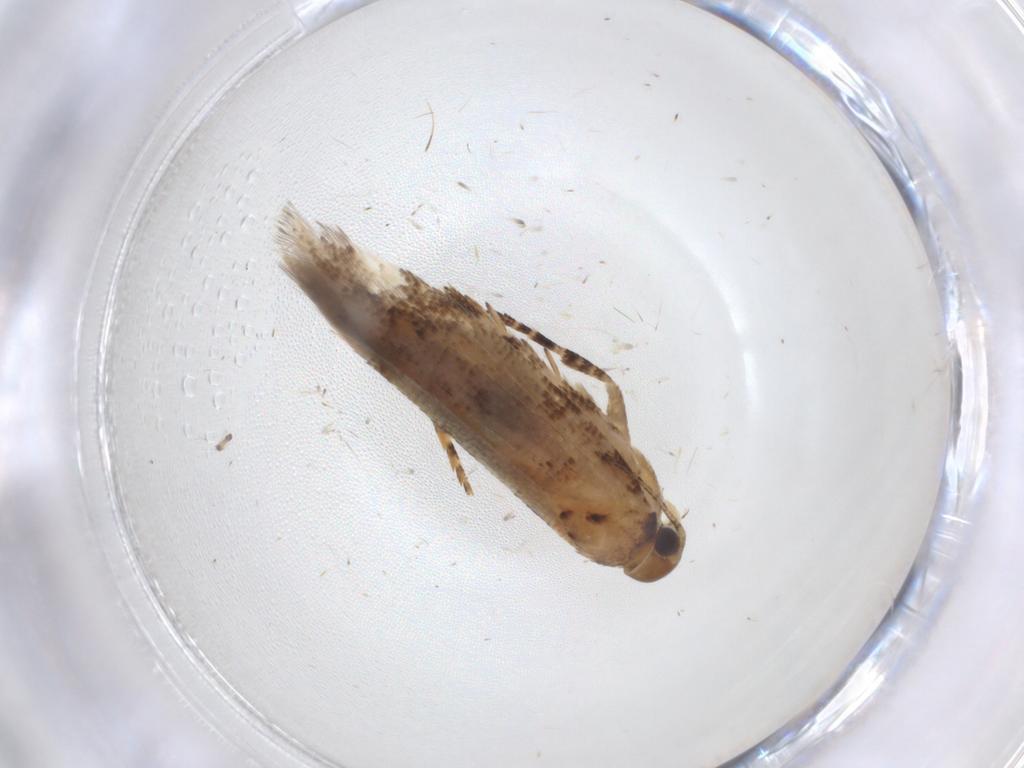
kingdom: Animalia
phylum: Arthropoda
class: Insecta
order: Lepidoptera
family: Gelechiidae
